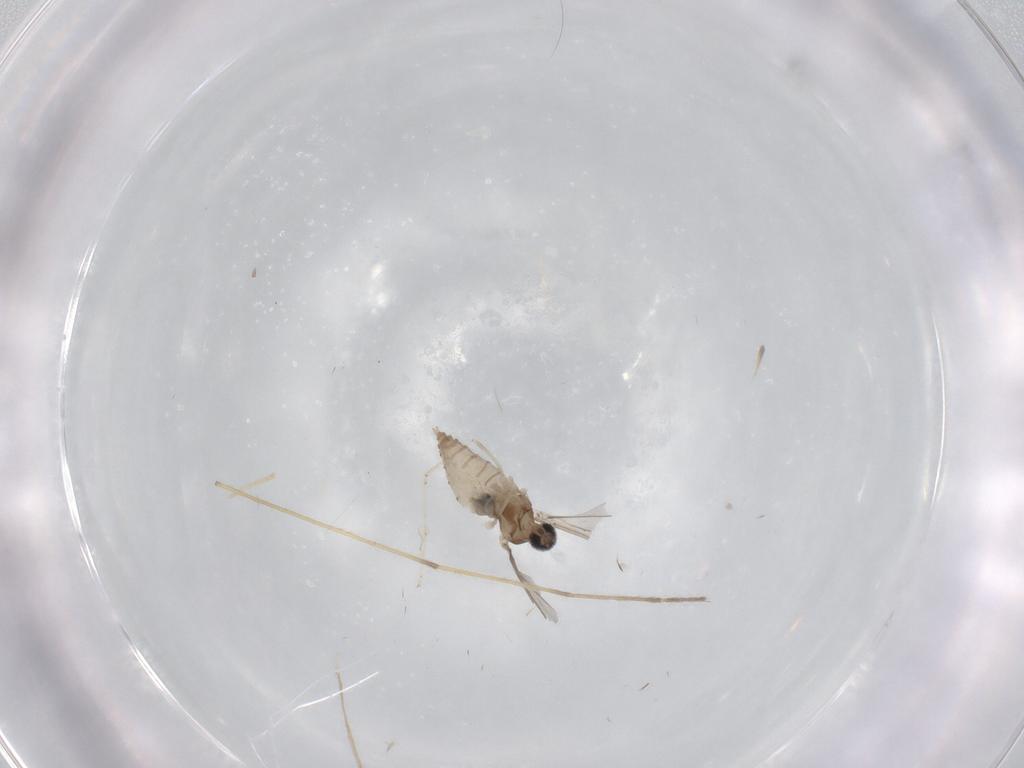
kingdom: Animalia
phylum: Arthropoda
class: Insecta
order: Diptera
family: Cecidomyiidae
